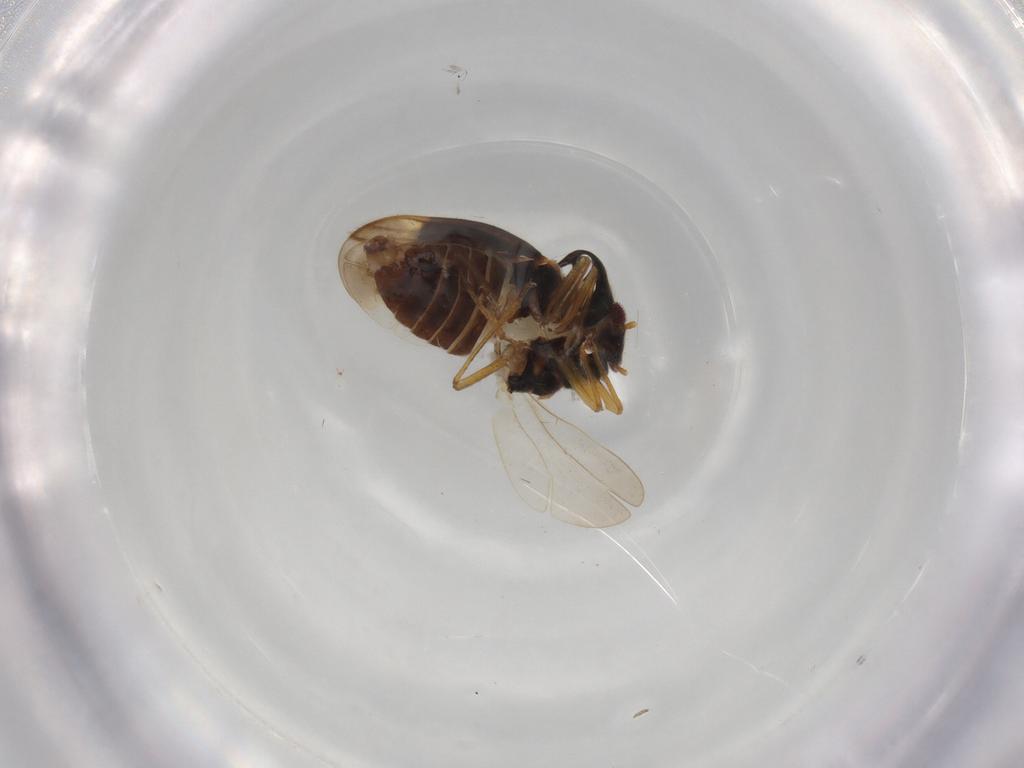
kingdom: Animalia
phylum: Arthropoda
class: Insecta
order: Hemiptera
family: Schizopteridae
